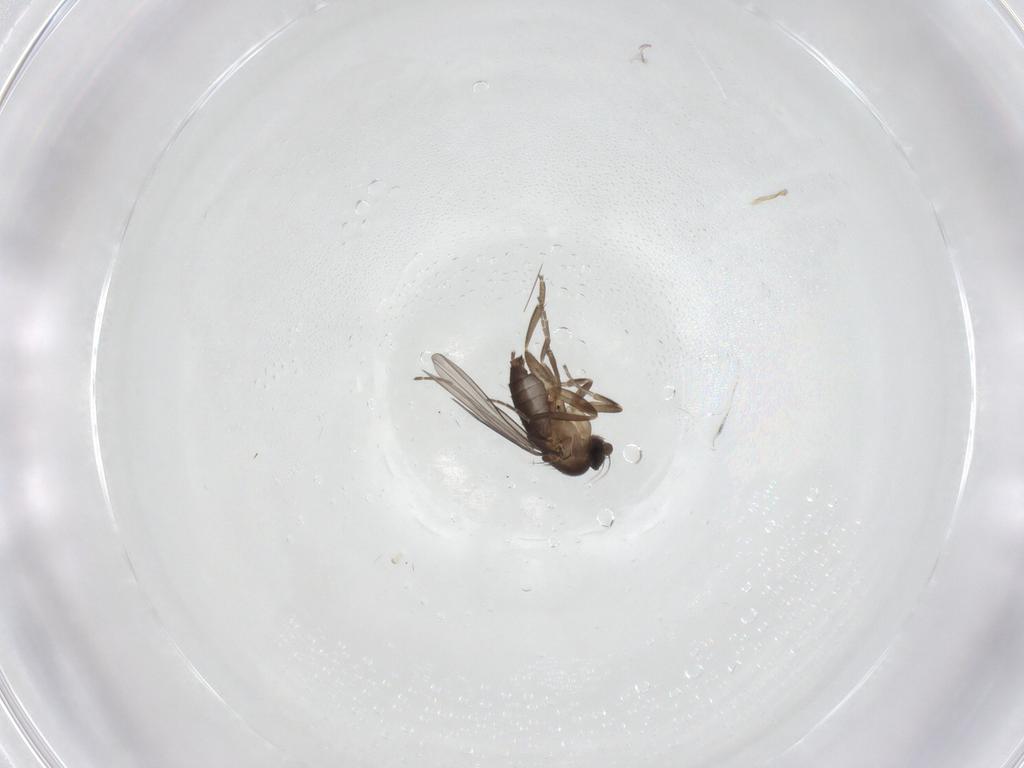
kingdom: Animalia
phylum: Arthropoda
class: Insecta
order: Diptera
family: Phoridae
